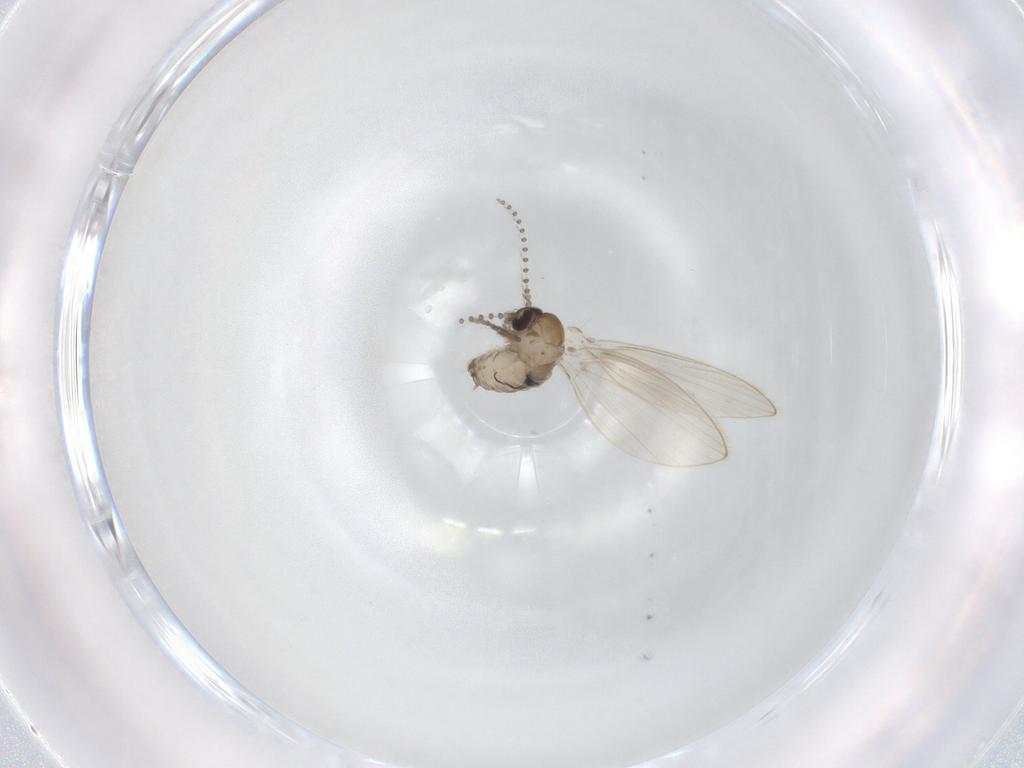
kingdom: Animalia
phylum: Arthropoda
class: Insecta
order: Diptera
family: Psychodidae
